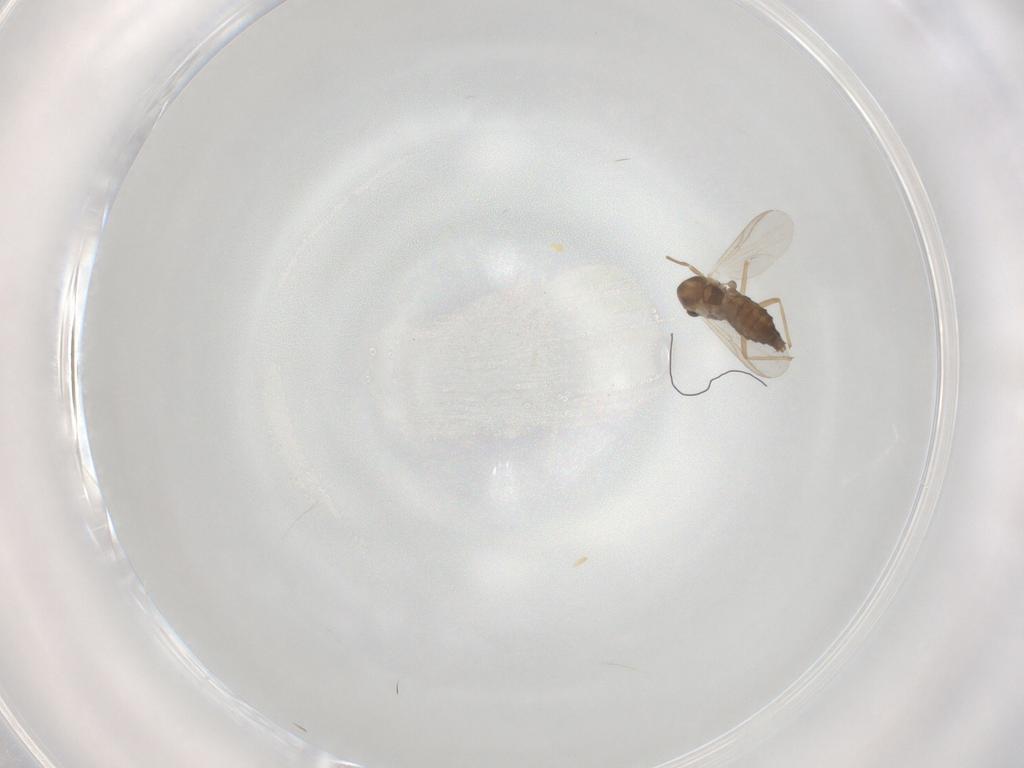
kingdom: Animalia
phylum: Arthropoda
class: Insecta
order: Diptera
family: Chironomidae
